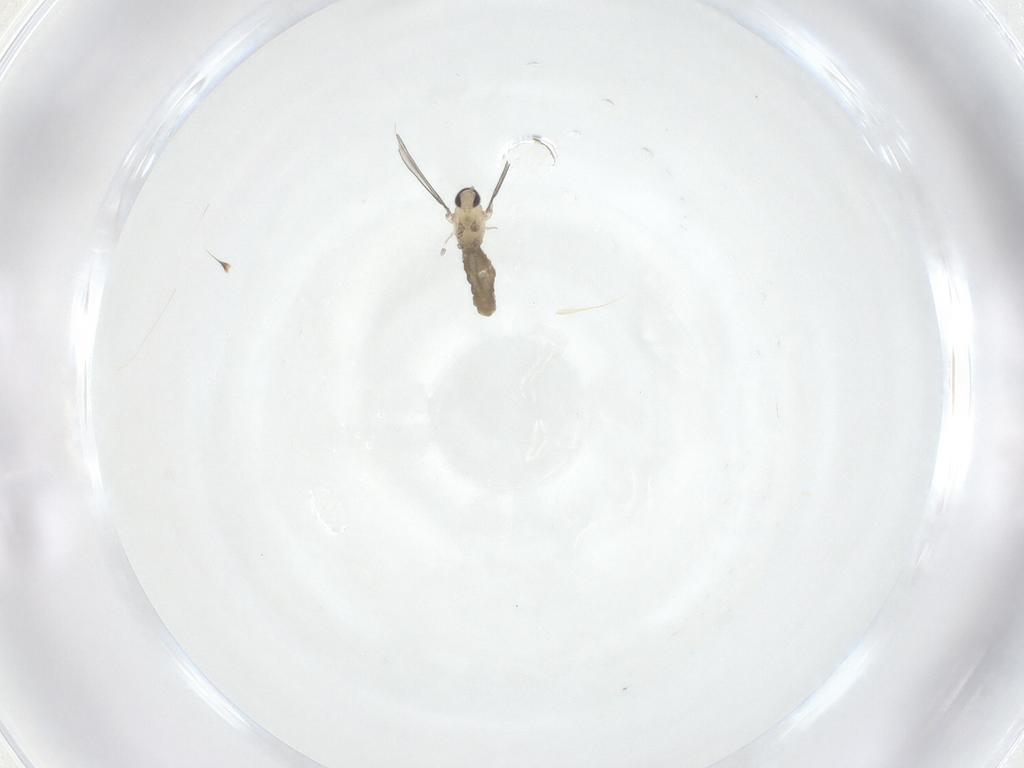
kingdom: Animalia
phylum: Arthropoda
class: Insecta
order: Diptera
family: Cecidomyiidae
